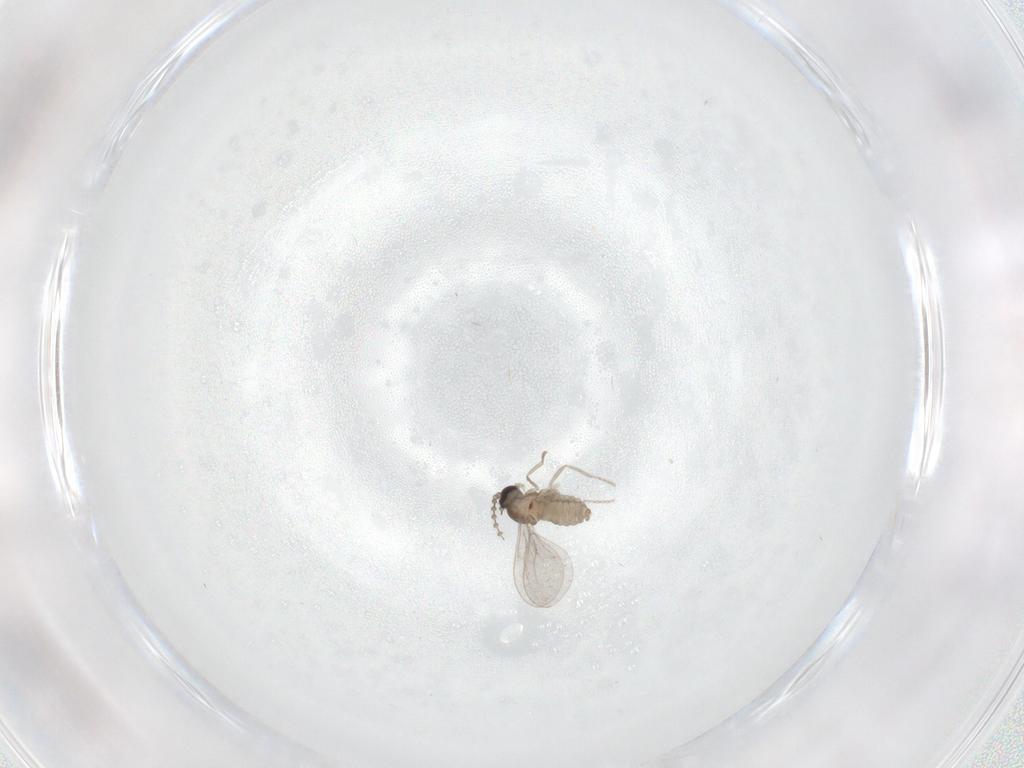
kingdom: Animalia
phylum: Arthropoda
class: Insecta
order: Diptera
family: Cecidomyiidae
